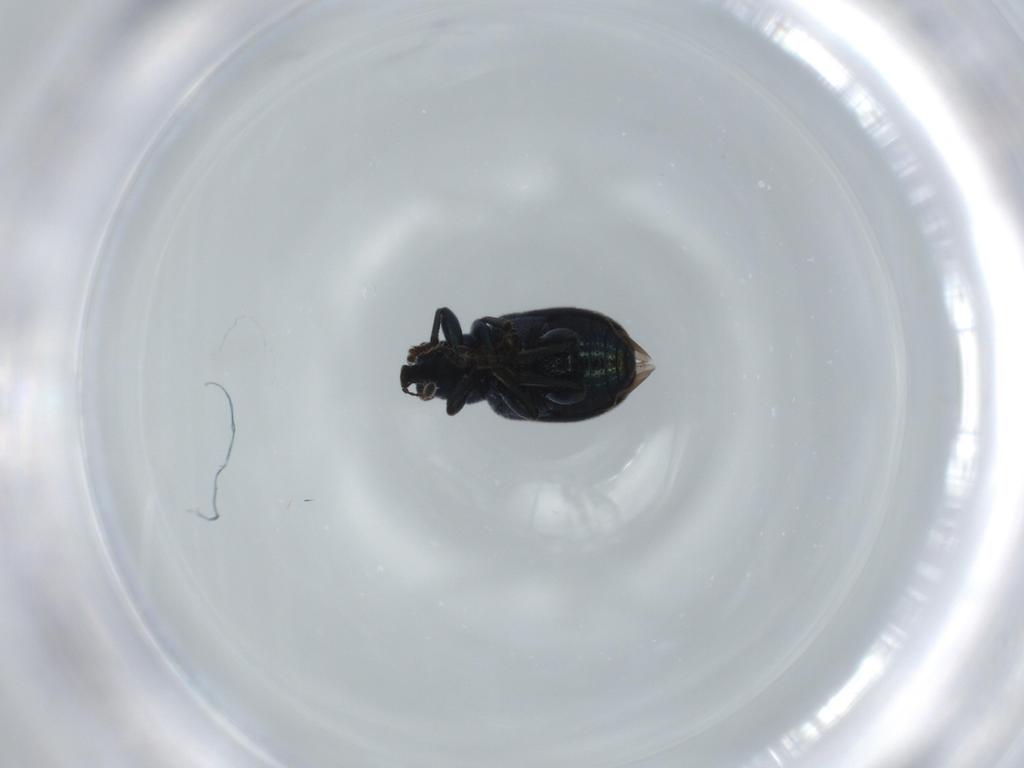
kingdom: Animalia
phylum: Arthropoda
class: Insecta
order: Coleoptera
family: Attelabidae
